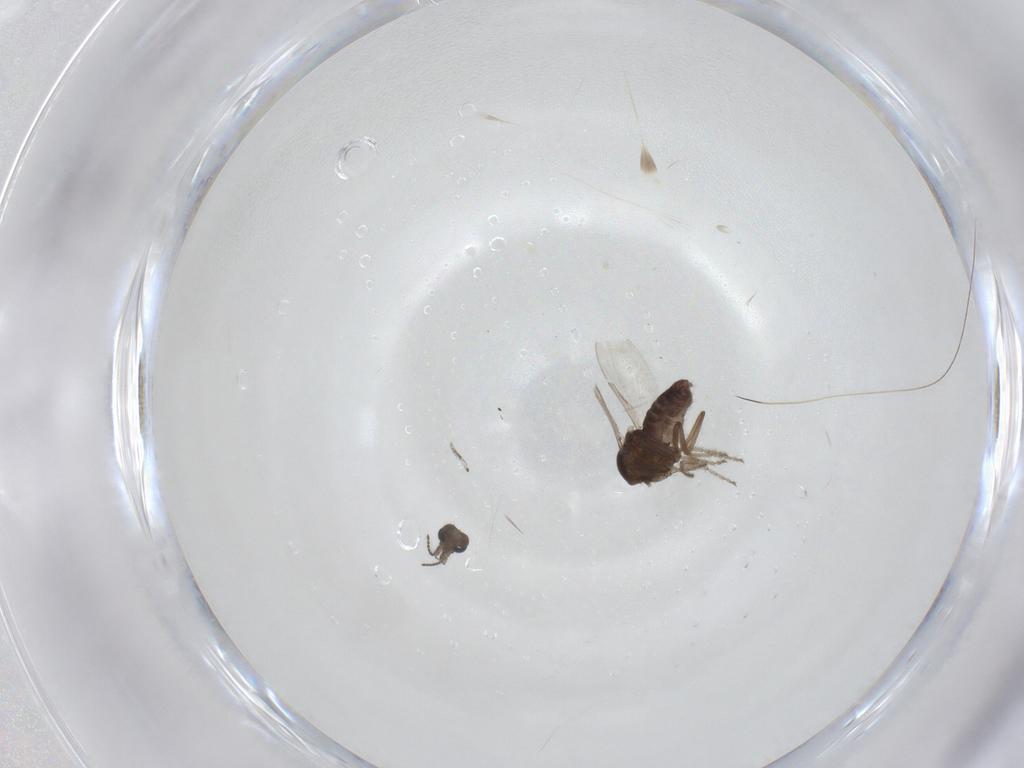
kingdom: Animalia
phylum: Arthropoda
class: Insecta
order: Diptera
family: Ceratopogonidae
